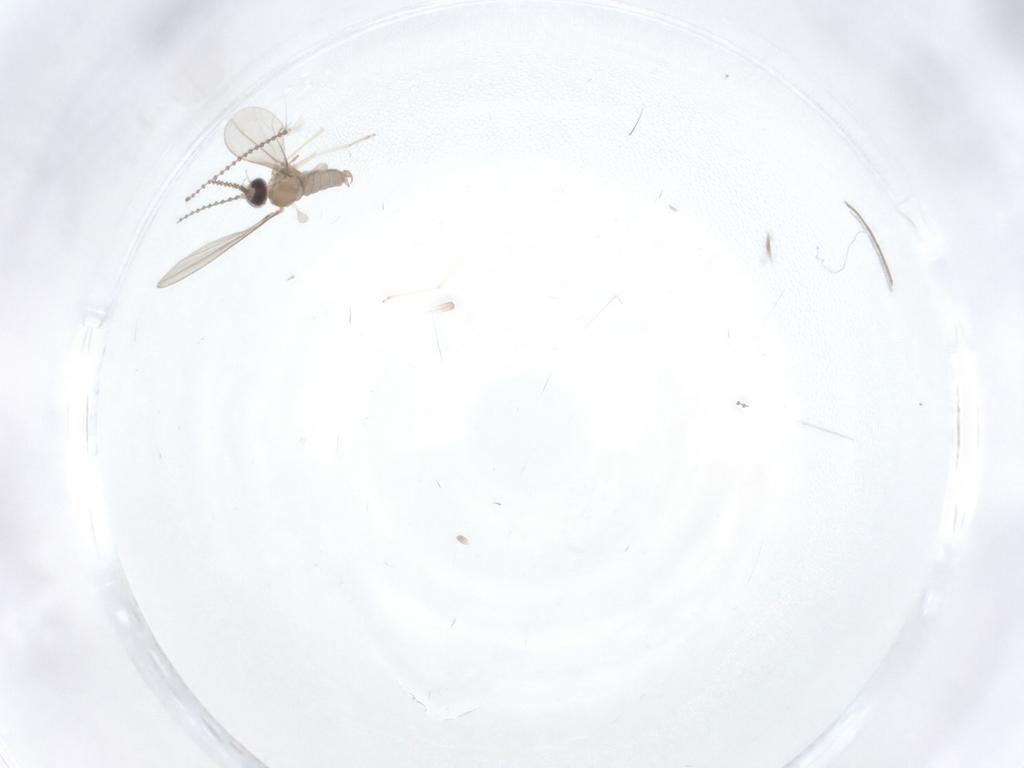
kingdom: Animalia
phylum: Arthropoda
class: Insecta
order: Diptera
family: Cecidomyiidae
